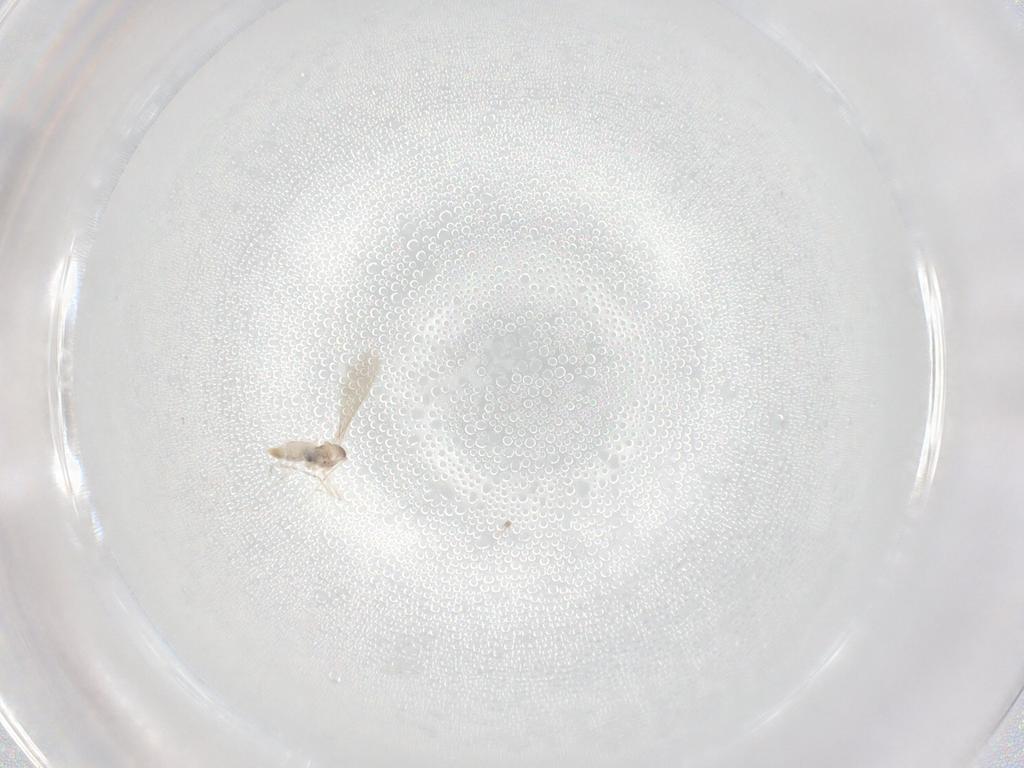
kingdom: Animalia
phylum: Arthropoda
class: Insecta
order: Diptera
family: Cecidomyiidae
